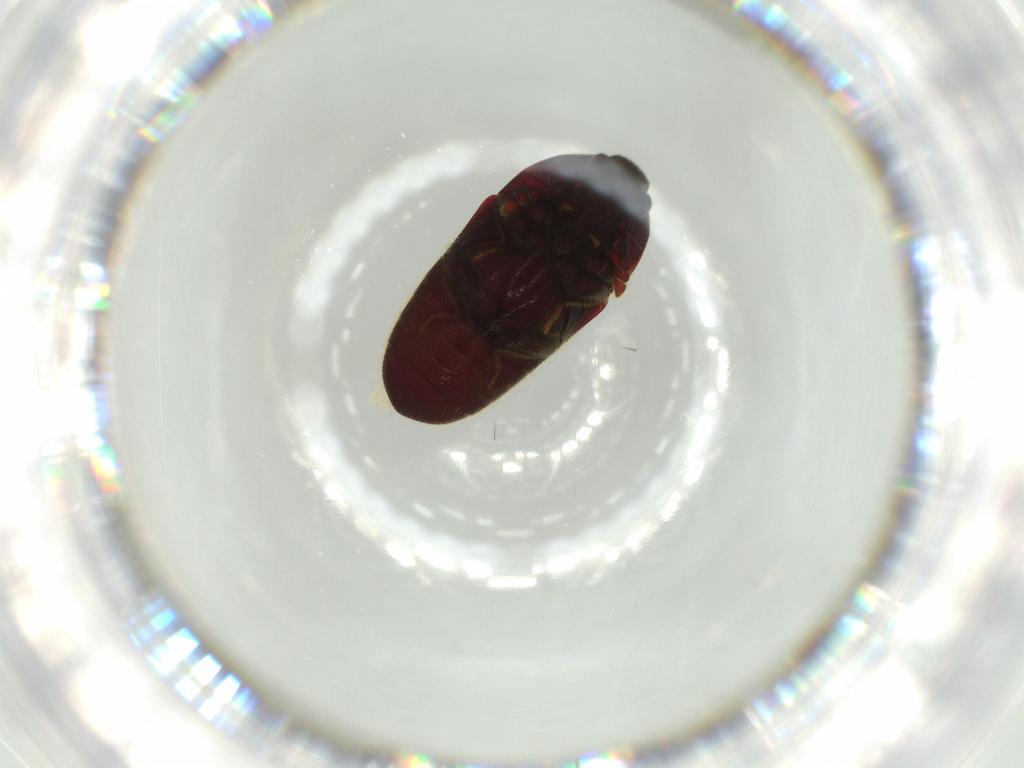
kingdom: Animalia
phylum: Arthropoda
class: Insecta
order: Coleoptera
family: Throscidae
